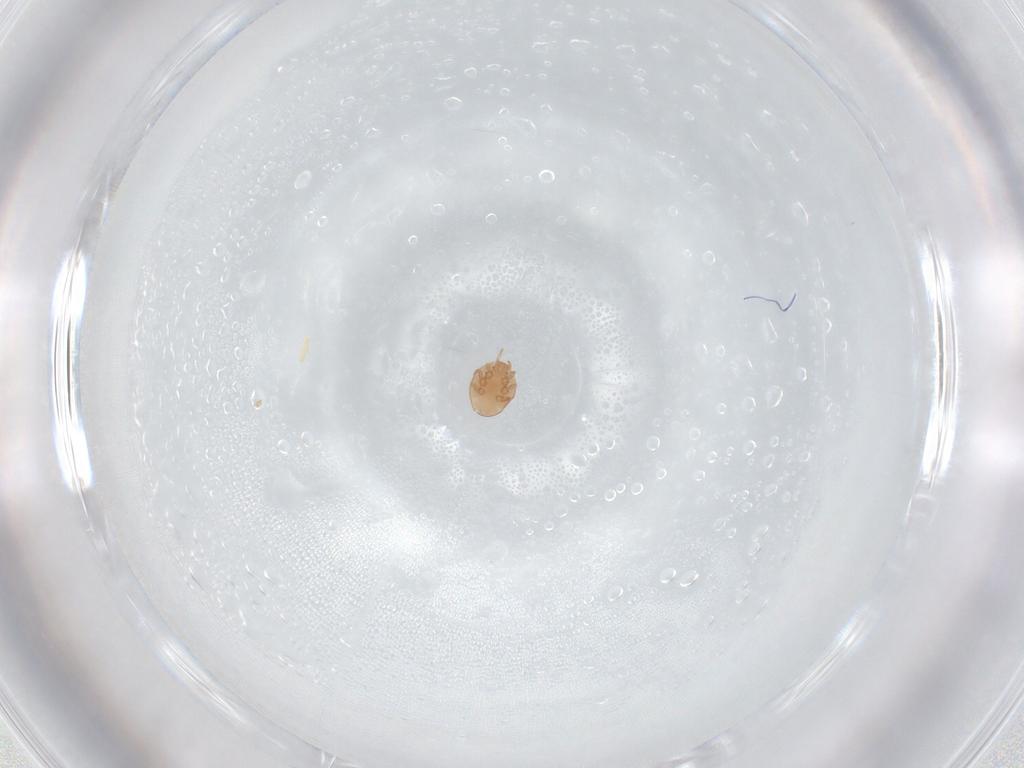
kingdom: Animalia
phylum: Arthropoda
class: Arachnida
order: Mesostigmata
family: Trematuridae
